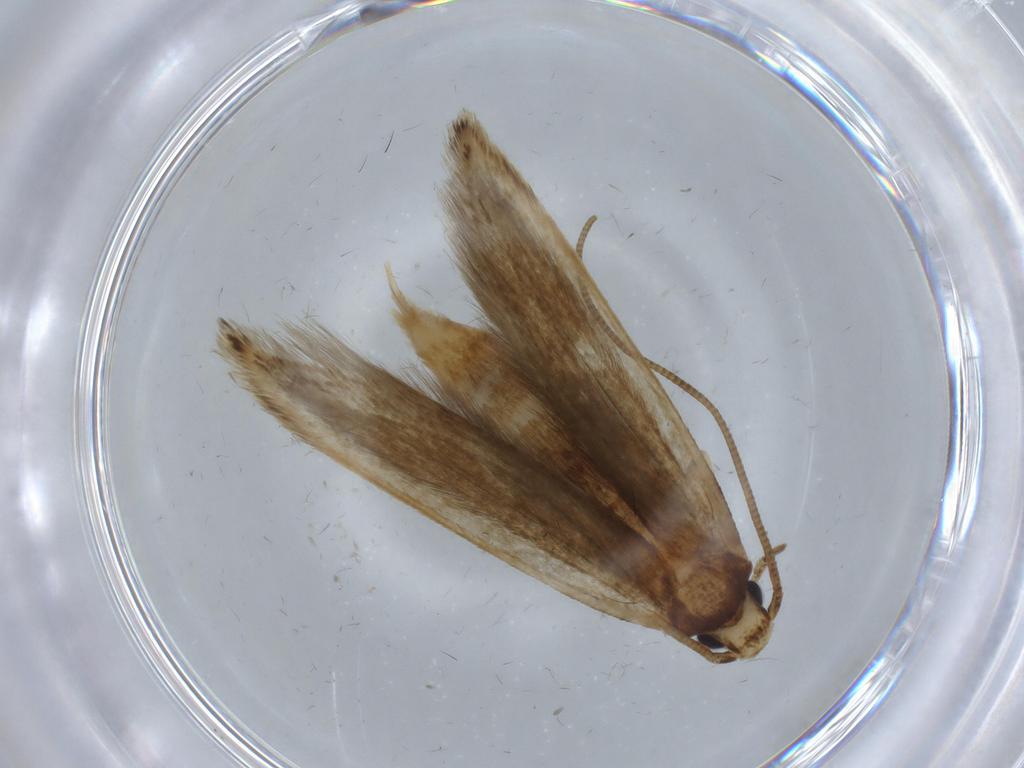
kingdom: Animalia
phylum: Arthropoda
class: Insecta
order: Lepidoptera
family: Tineidae
